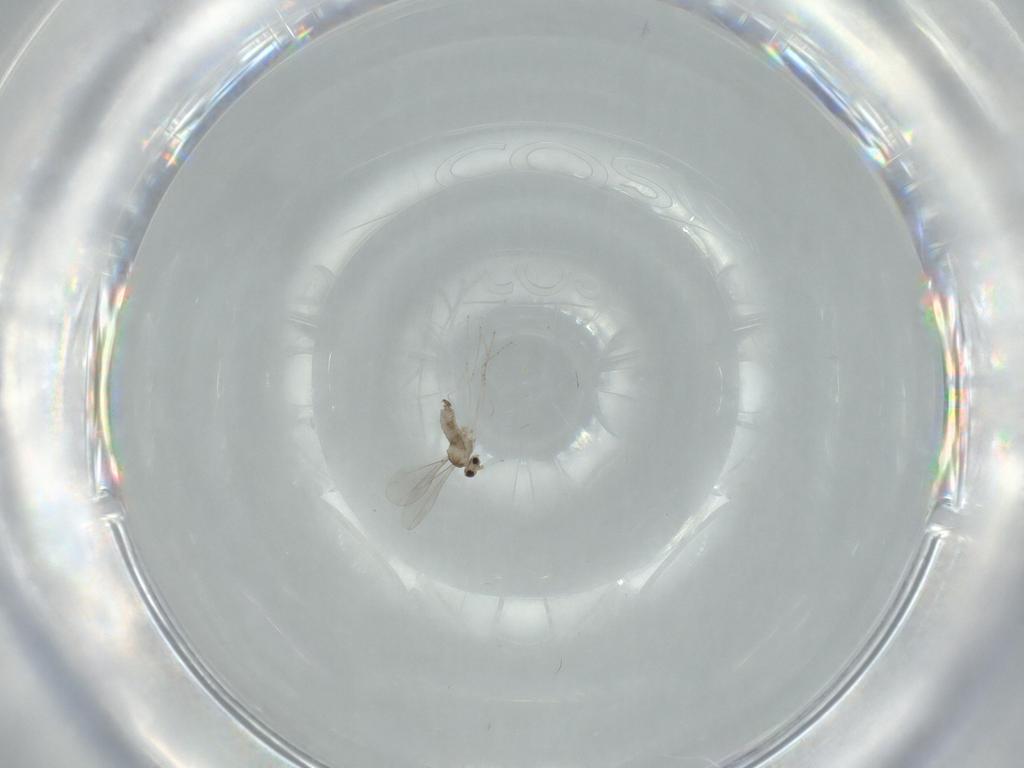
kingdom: Animalia
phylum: Arthropoda
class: Insecta
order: Diptera
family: Cecidomyiidae
